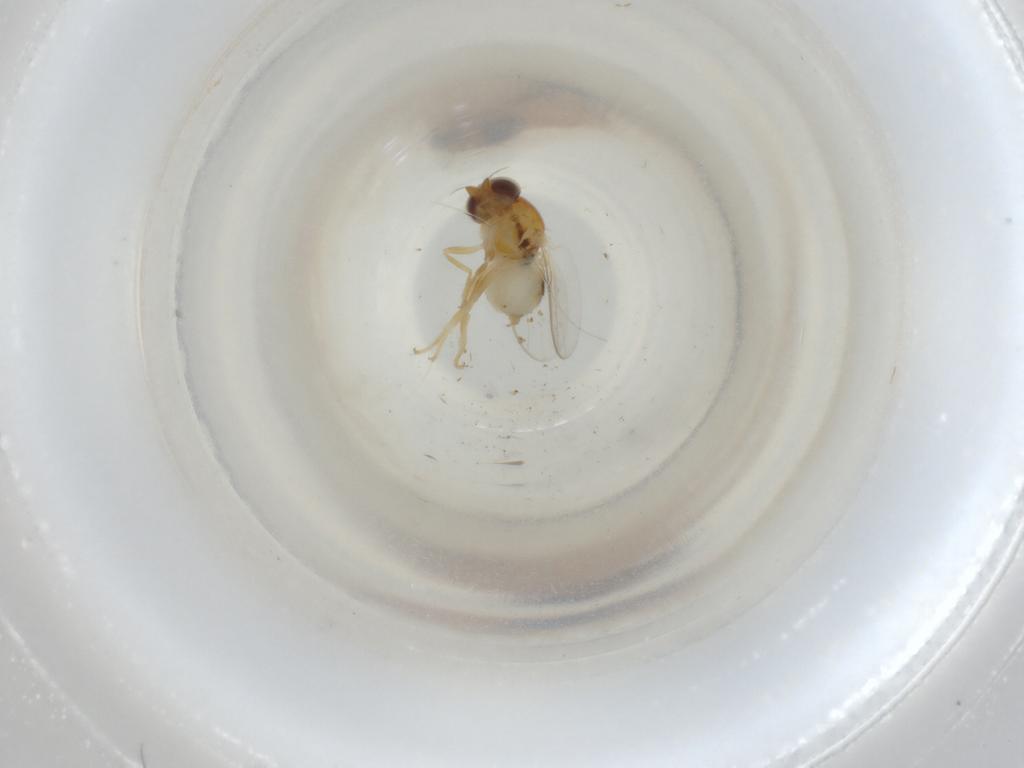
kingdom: Animalia
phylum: Arthropoda
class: Insecta
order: Diptera
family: Chloropidae
